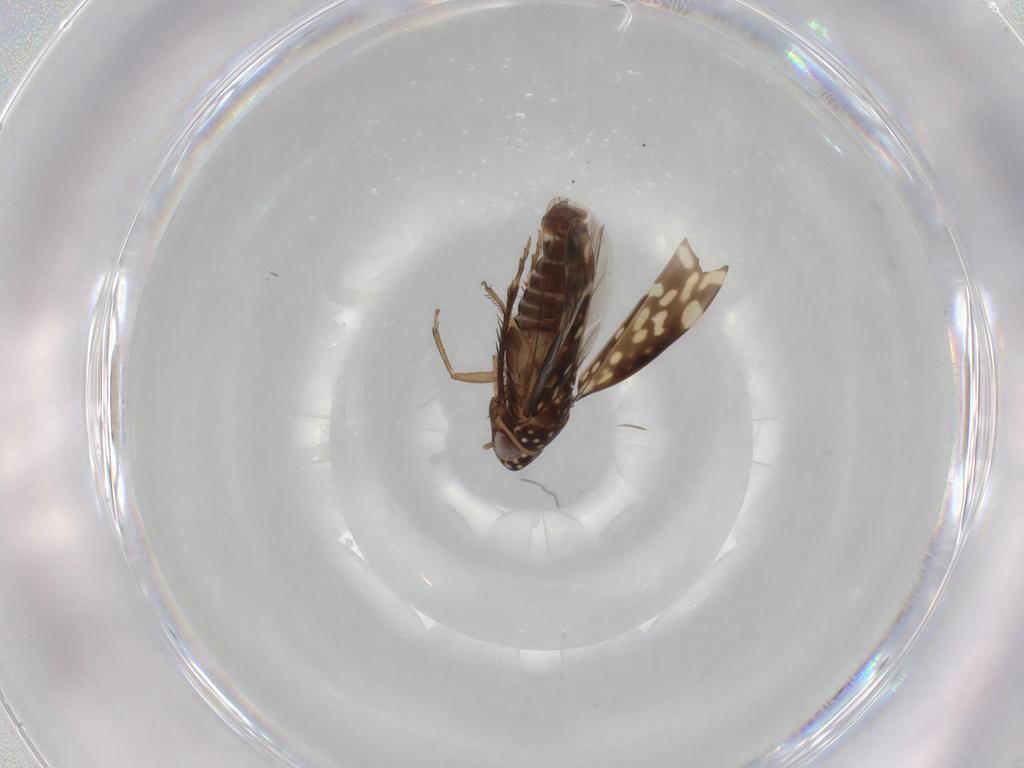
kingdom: Animalia
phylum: Arthropoda
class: Insecta
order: Hemiptera
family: Cicadellidae
